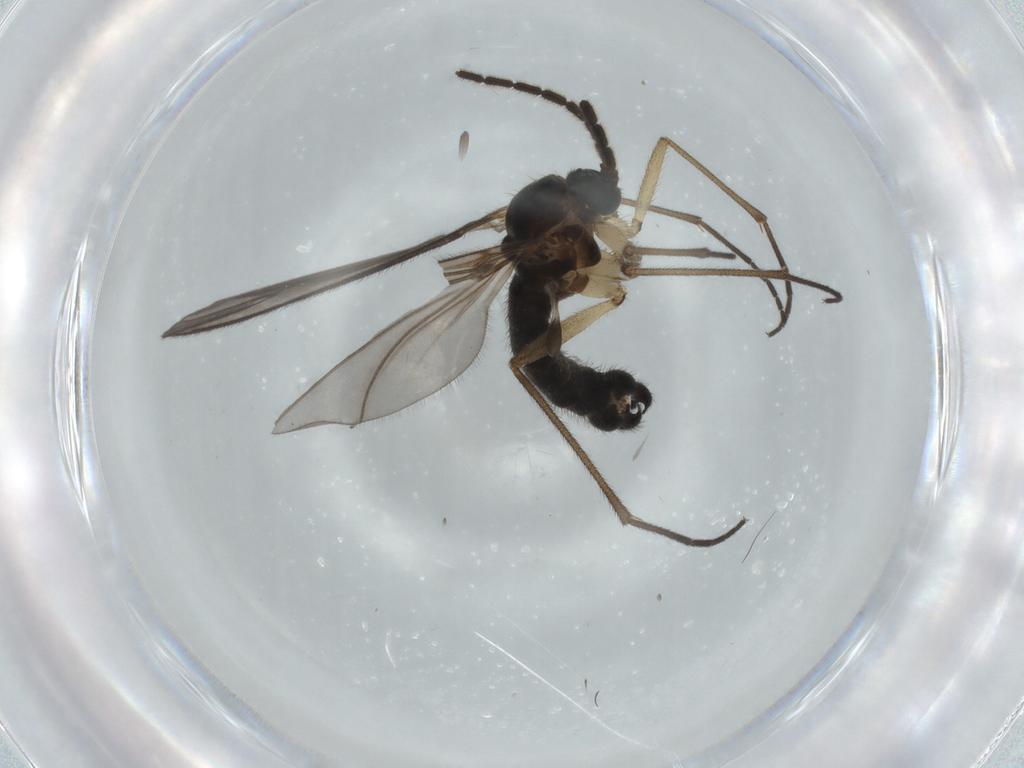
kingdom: Animalia
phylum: Arthropoda
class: Insecta
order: Diptera
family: Sciaridae
